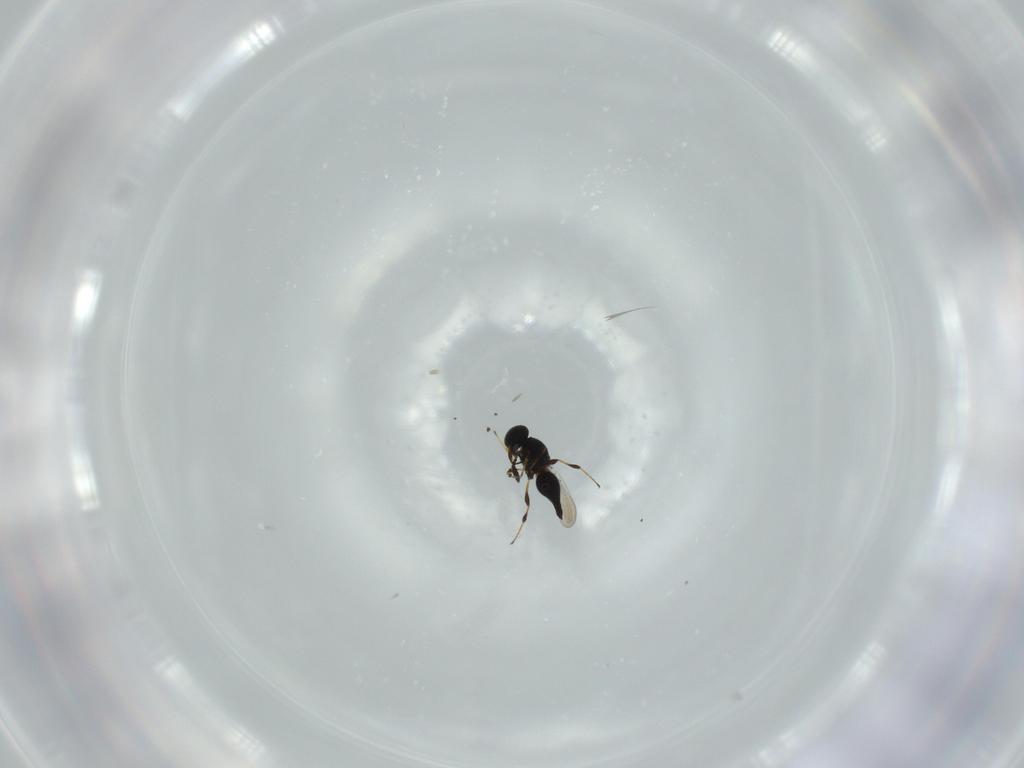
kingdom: Animalia
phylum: Arthropoda
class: Insecta
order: Hymenoptera
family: Platygastridae
